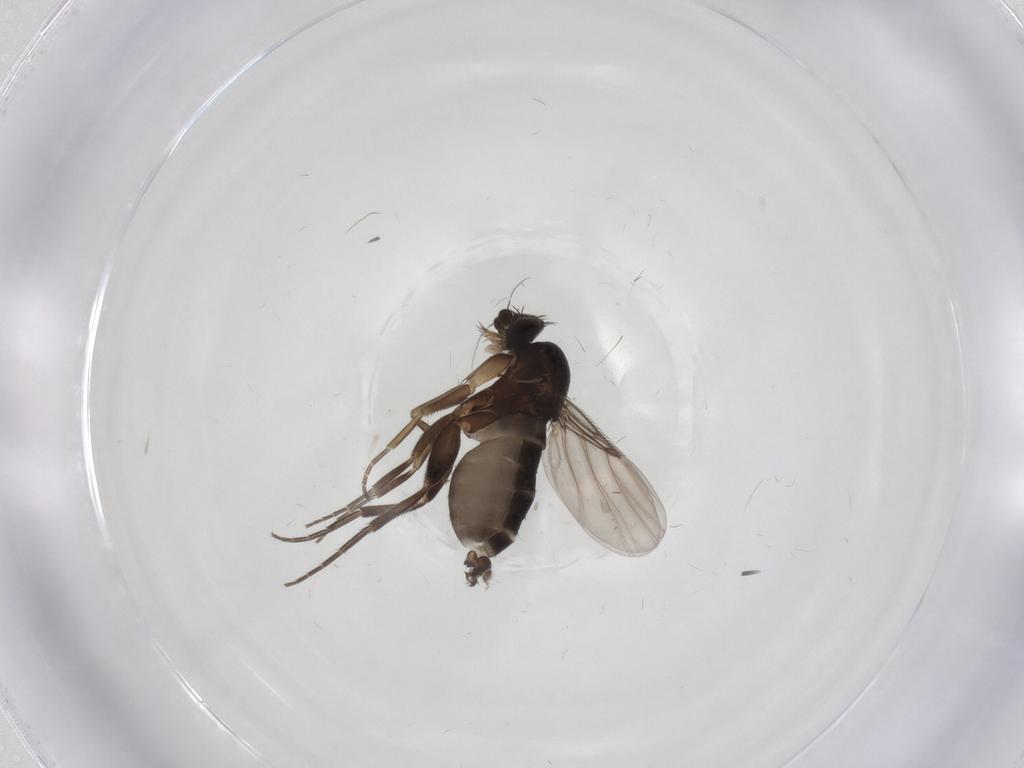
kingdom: Animalia
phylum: Arthropoda
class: Insecta
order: Diptera
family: Phoridae
